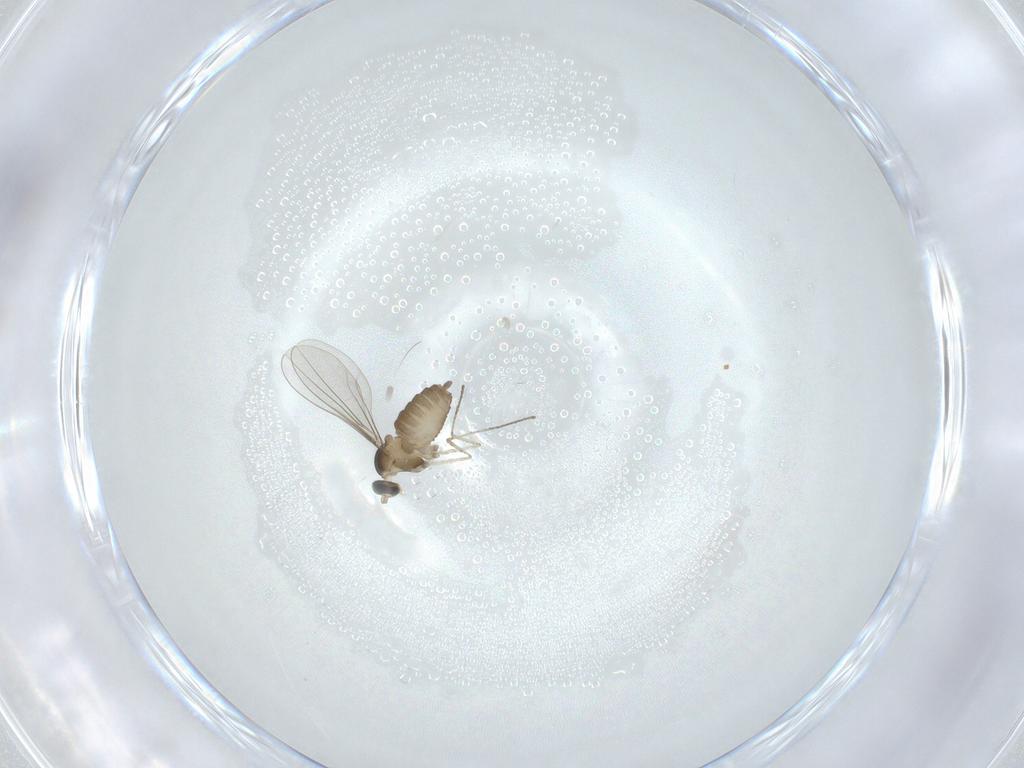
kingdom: Animalia
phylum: Arthropoda
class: Insecta
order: Diptera
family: Cecidomyiidae
